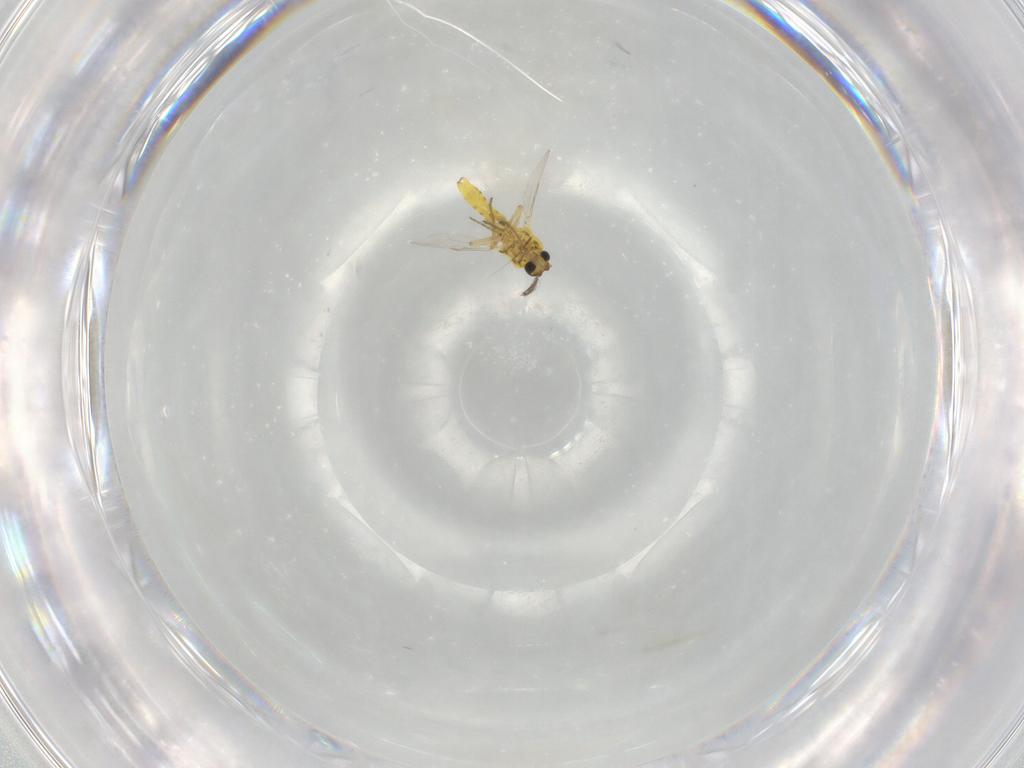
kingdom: Animalia
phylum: Arthropoda
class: Insecta
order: Diptera
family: Ceratopogonidae
